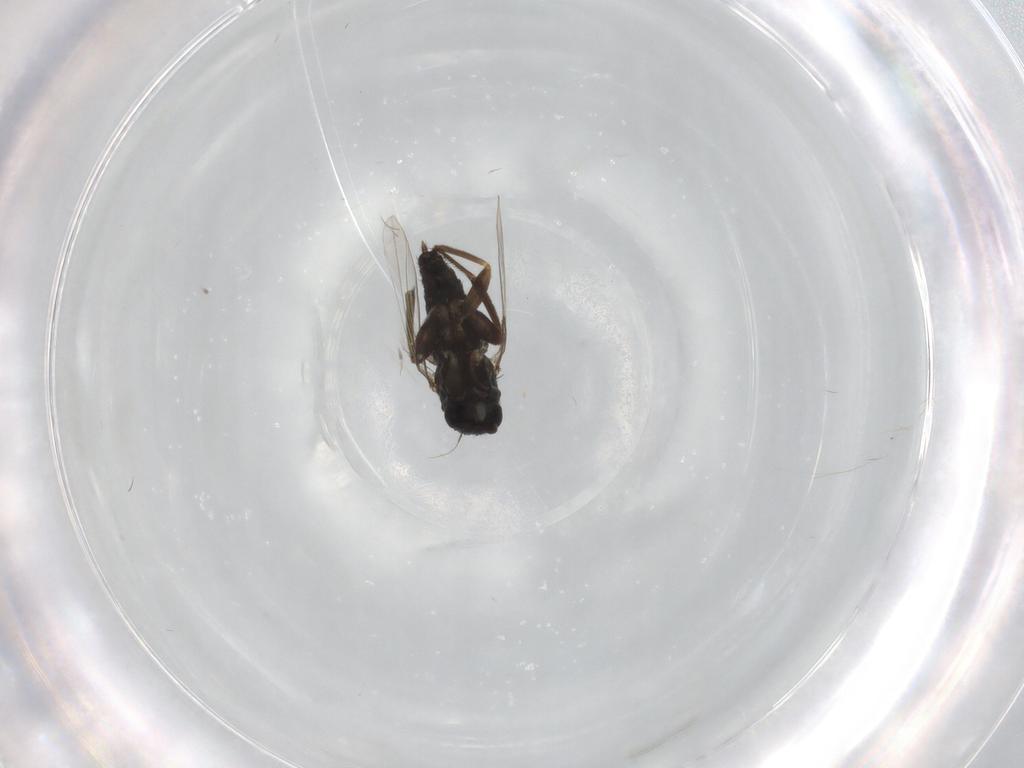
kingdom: Animalia
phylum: Arthropoda
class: Insecta
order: Diptera
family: Phoridae
